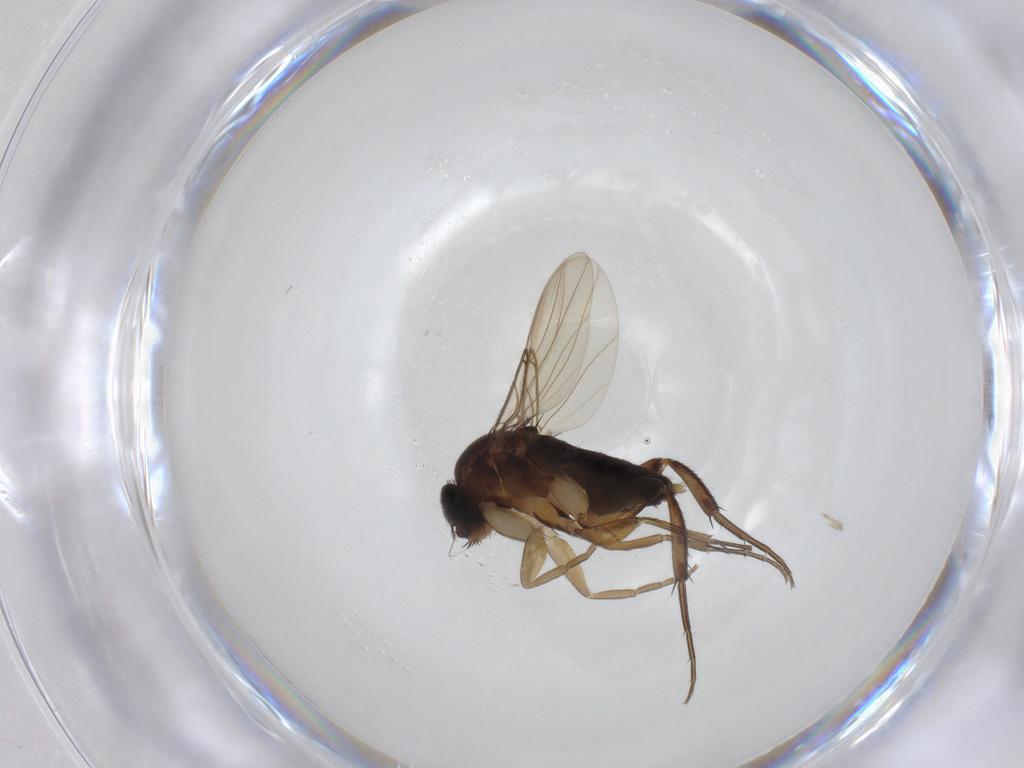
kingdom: Animalia
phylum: Arthropoda
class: Insecta
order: Diptera
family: Phoridae
